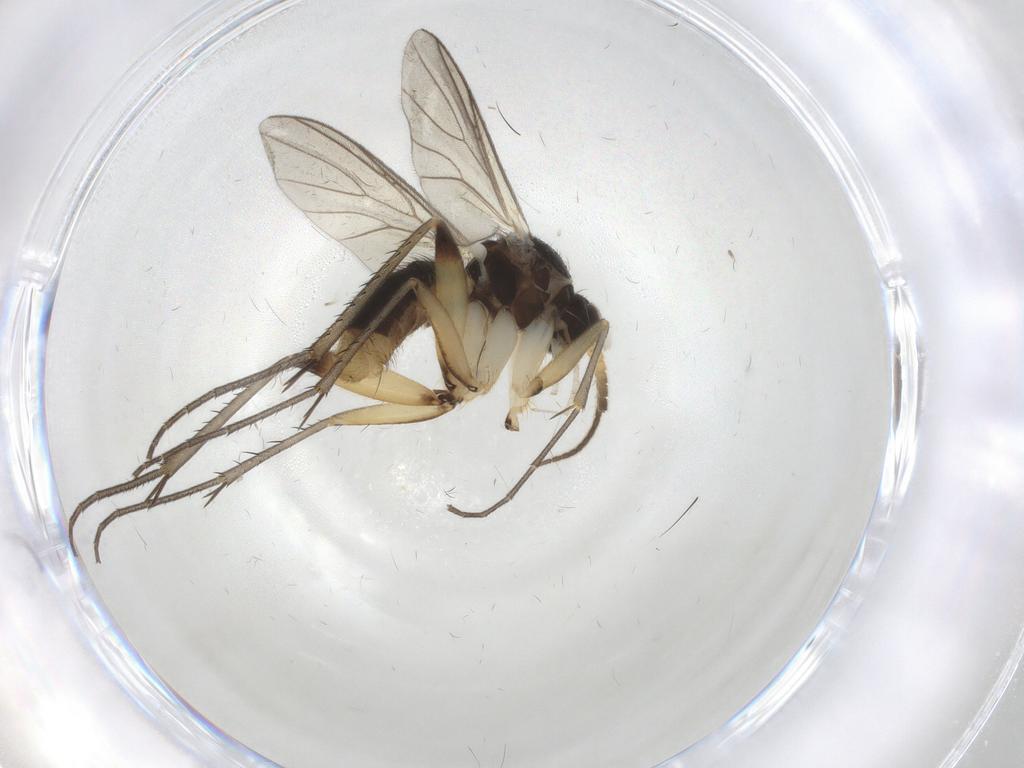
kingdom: Animalia
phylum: Arthropoda
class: Insecta
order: Diptera
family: Mycetophilidae
